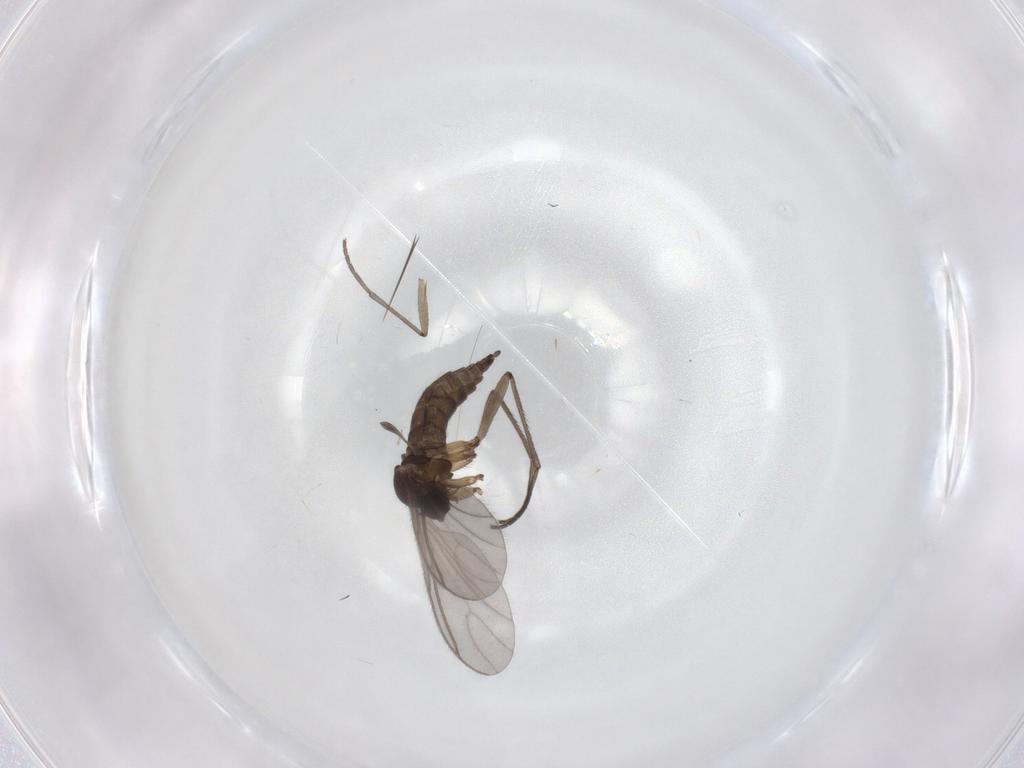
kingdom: Animalia
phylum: Arthropoda
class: Insecta
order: Diptera
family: Sciaridae
